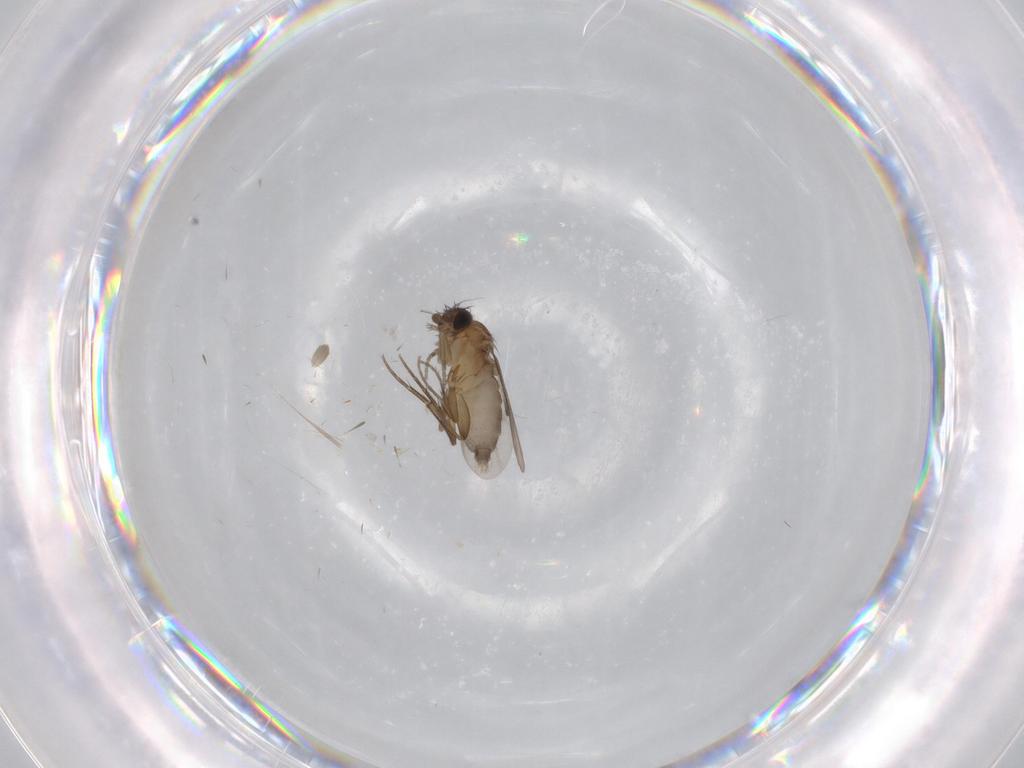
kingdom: Animalia
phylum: Arthropoda
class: Insecta
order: Diptera
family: Phoridae
